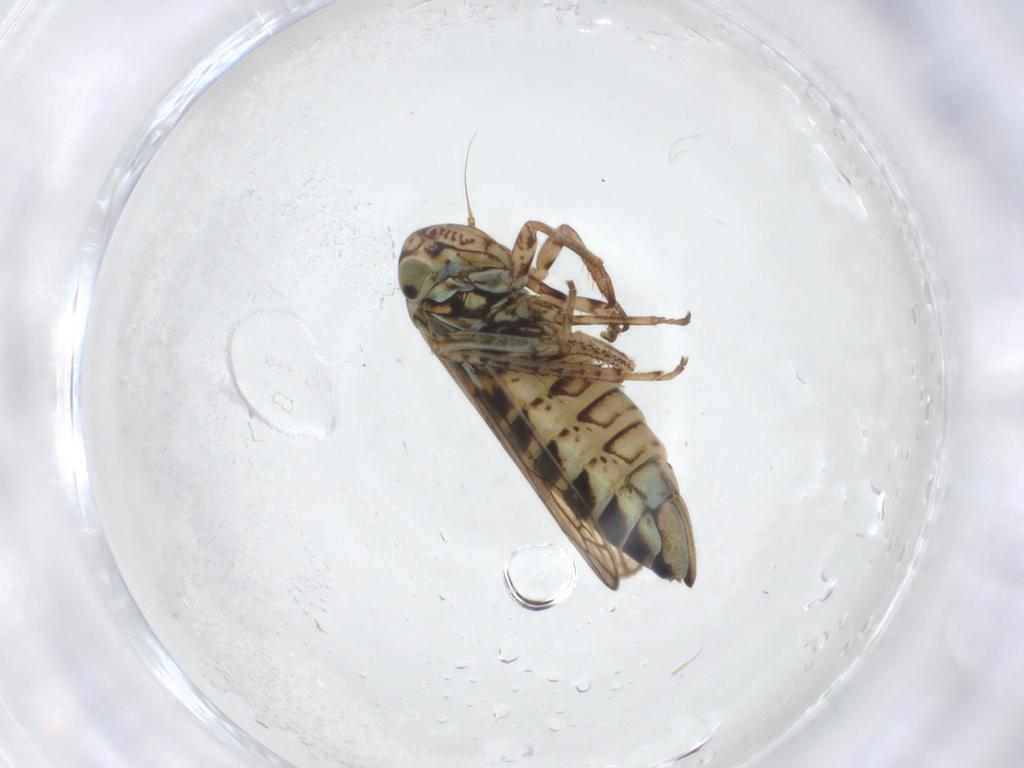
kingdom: Animalia
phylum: Arthropoda
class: Insecta
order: Hemiptera
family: Cicadellidae
